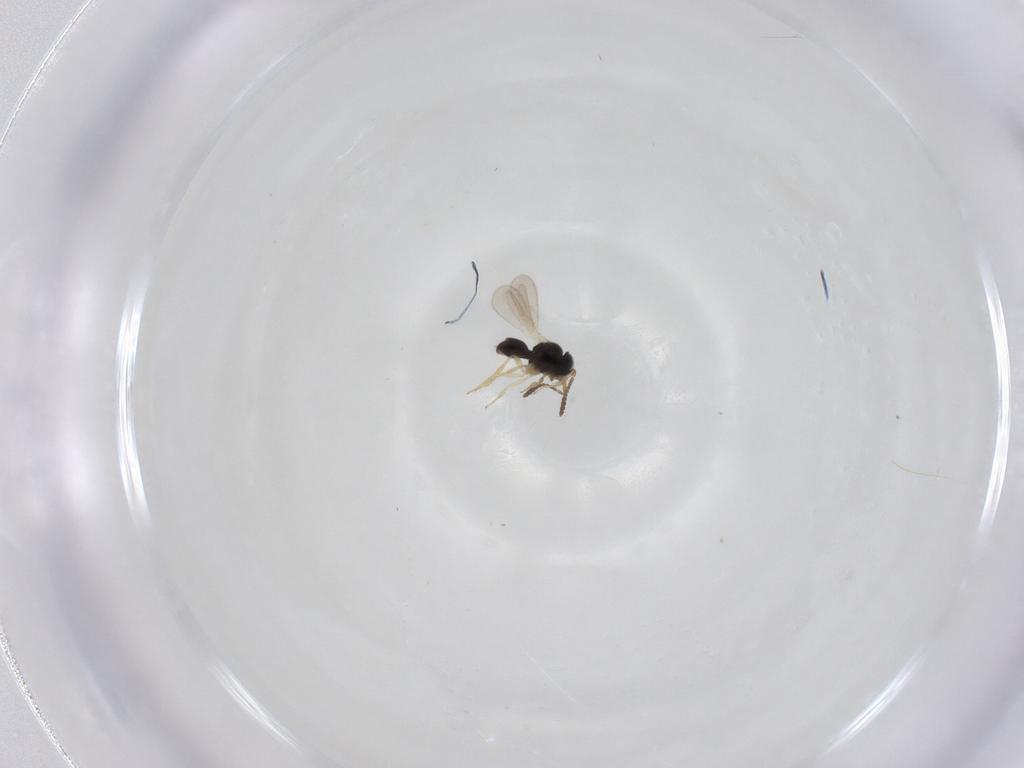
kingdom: Animalia
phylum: Arthropoda
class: Insecta
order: Hymenoptera
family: Scelionidae
